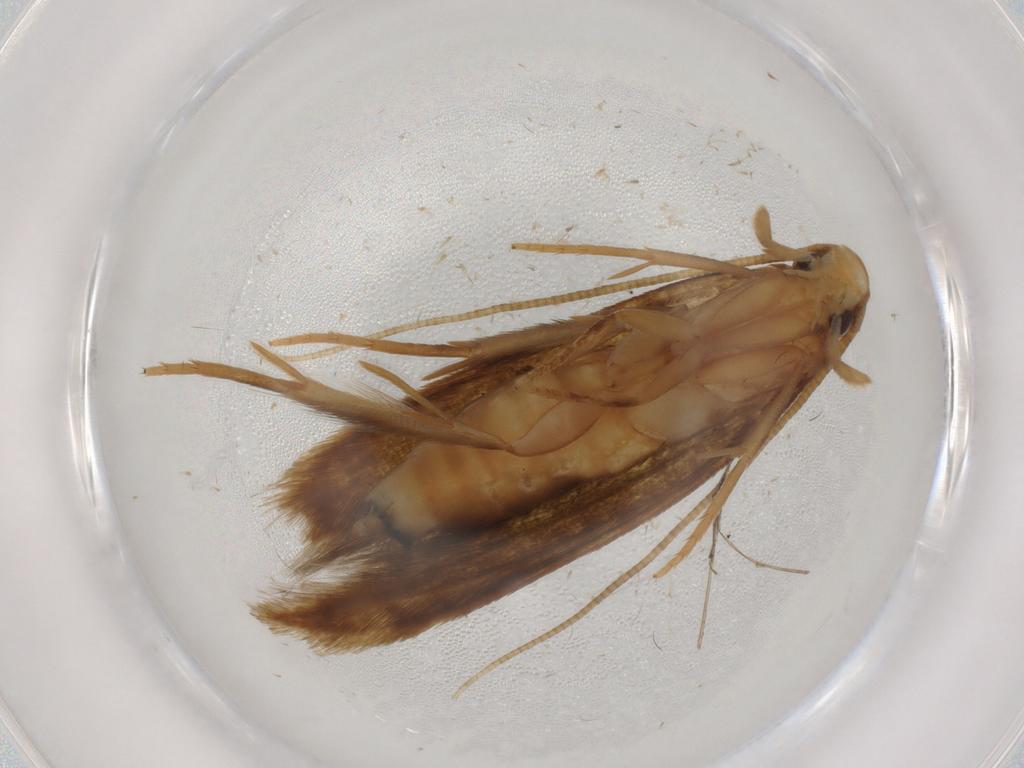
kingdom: Animalia
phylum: Arthropoda
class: Insecta
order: Lepidoptera
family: Tineidae
